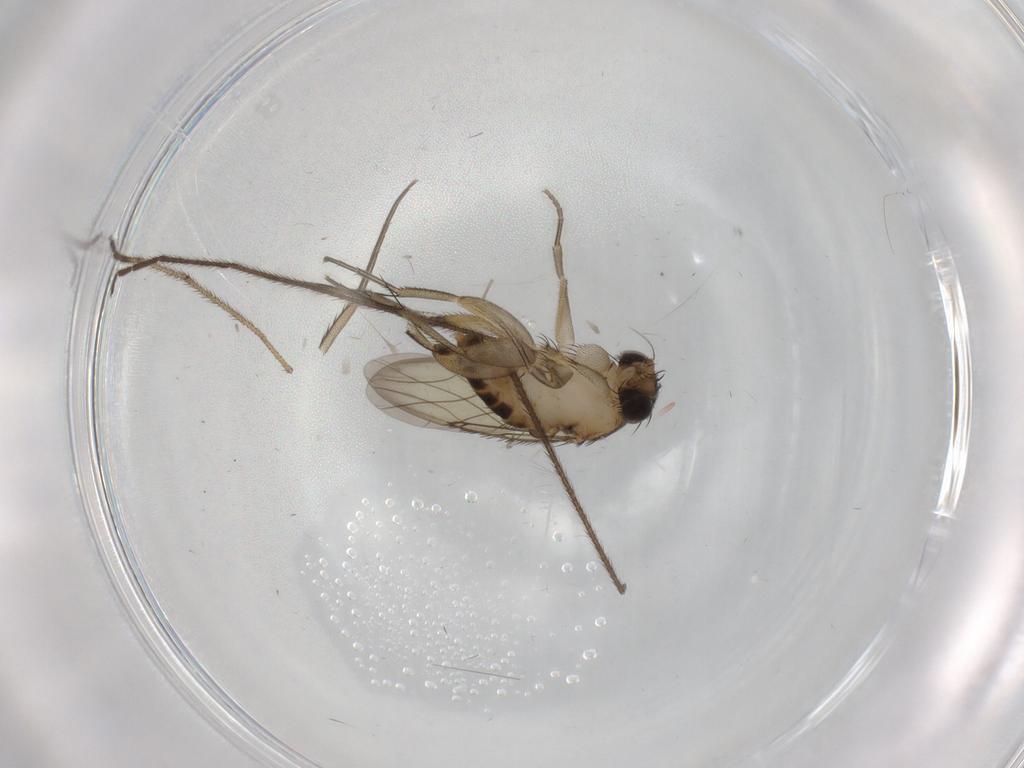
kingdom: Animalia
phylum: Arthropoda
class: Insecta
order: Diptera
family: Phoridae
